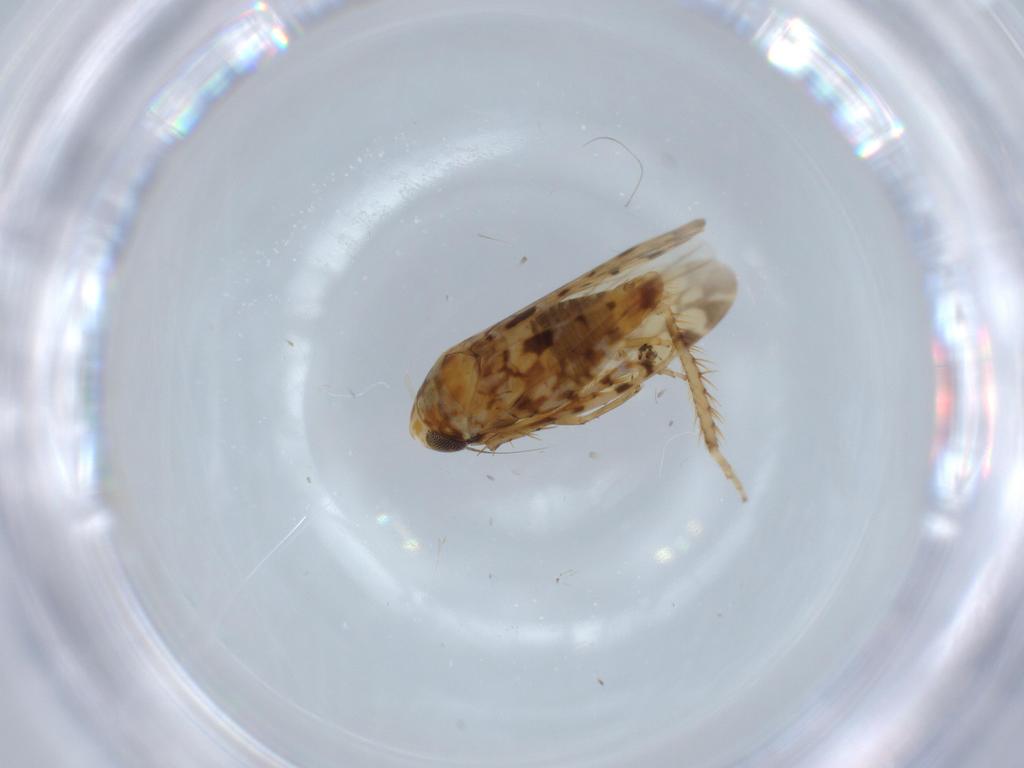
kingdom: Animalia
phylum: Arthropoda
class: Insecta
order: Hemiptera
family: Cicadellidae
